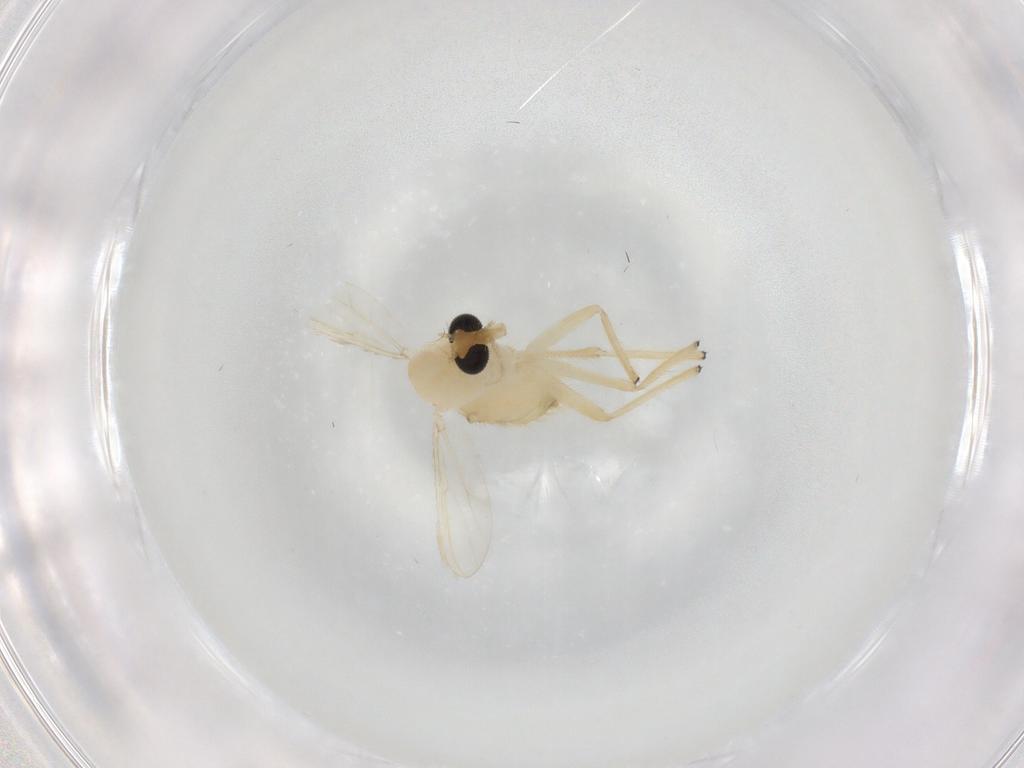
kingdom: Animalia
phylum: Arthropoda
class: Insecta
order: Diptera
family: Chironomidae
